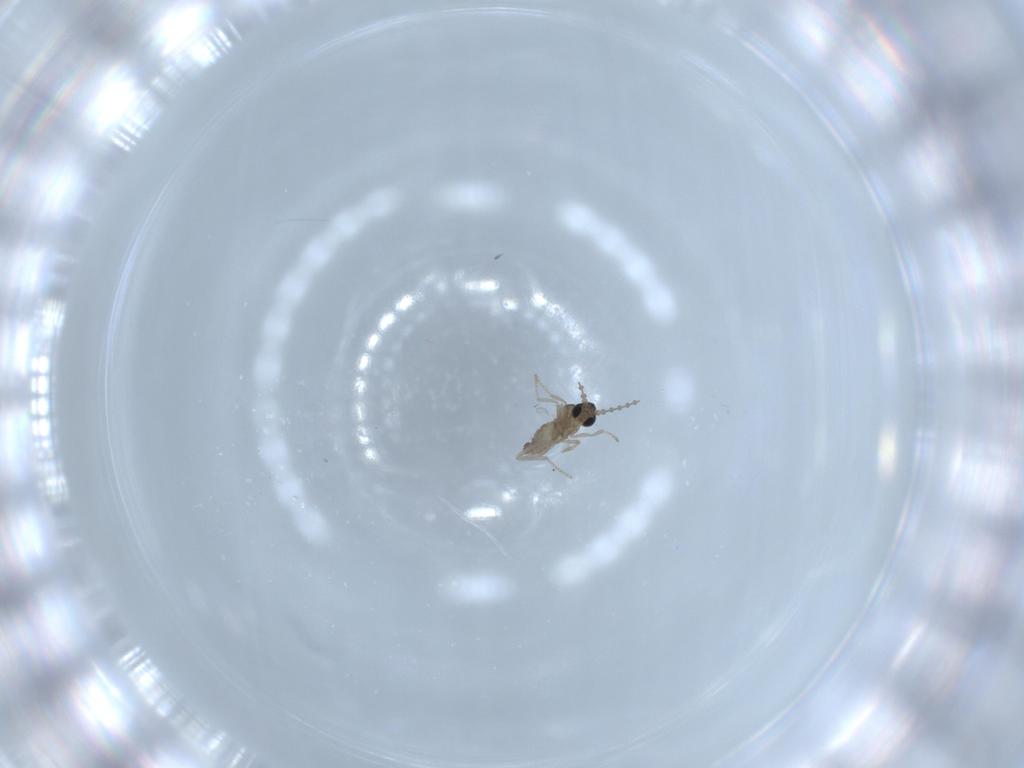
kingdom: Animalia
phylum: Arthropoda
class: Insecta
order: Diptera
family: Cecidomyiidae
